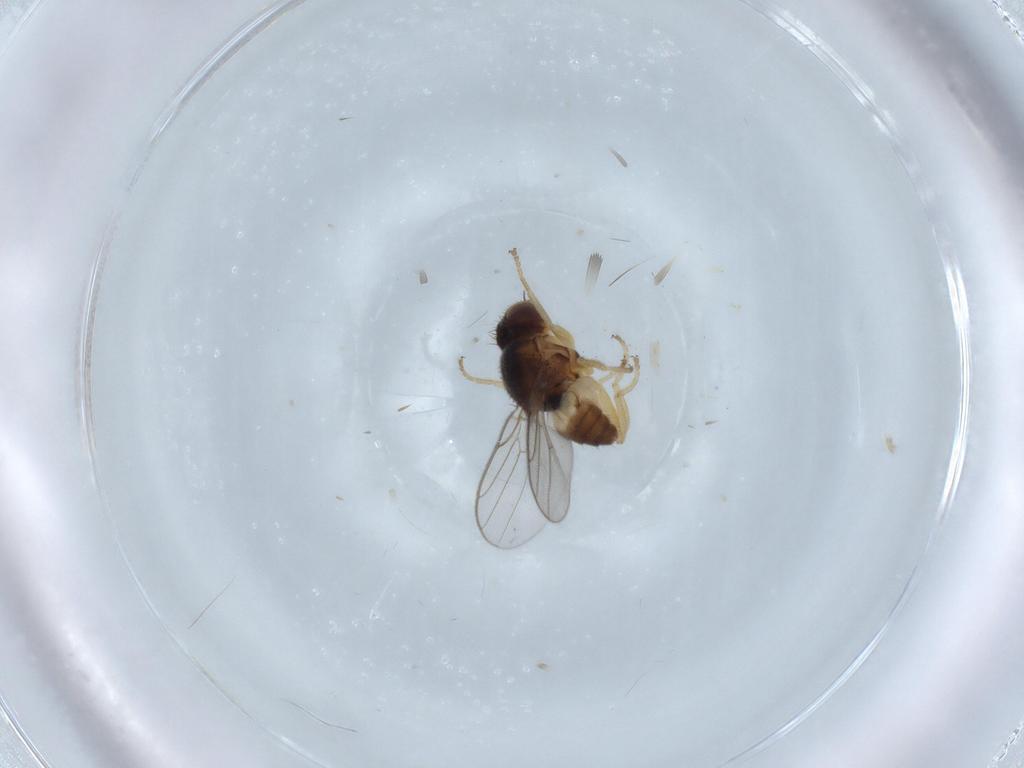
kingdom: Animalia
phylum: Arthropoda
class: Insecta
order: Diptera
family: Chloropidae
